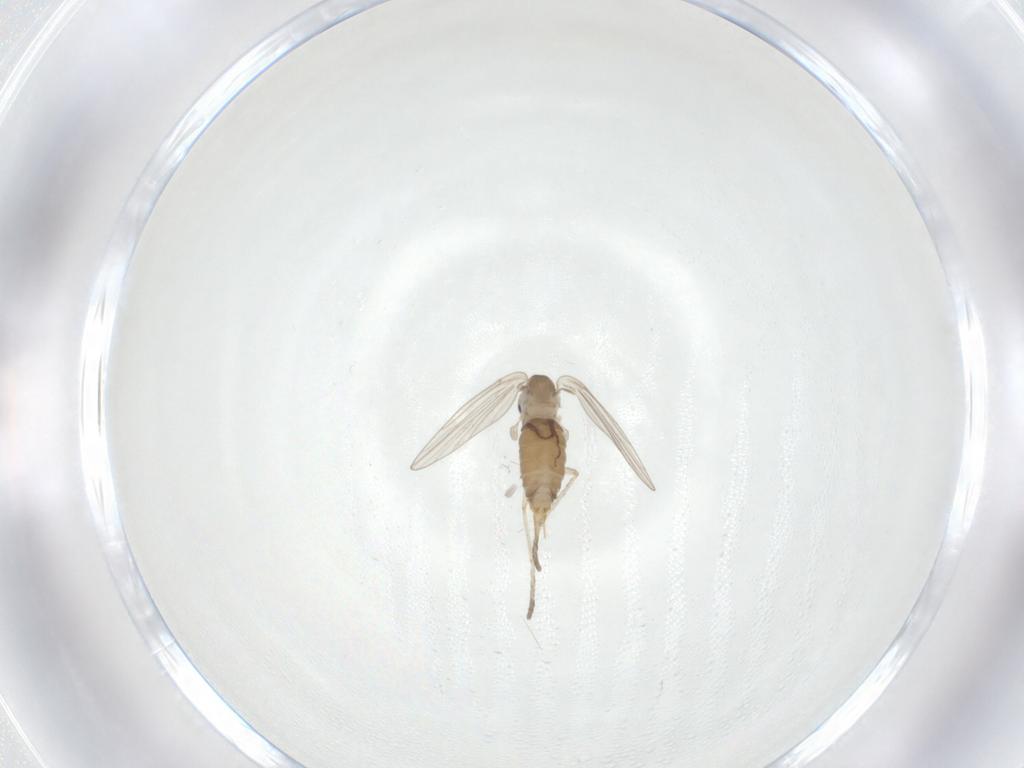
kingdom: Animalia
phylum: Arthropoda
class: Insecta
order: Diptera
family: Psychodidae
